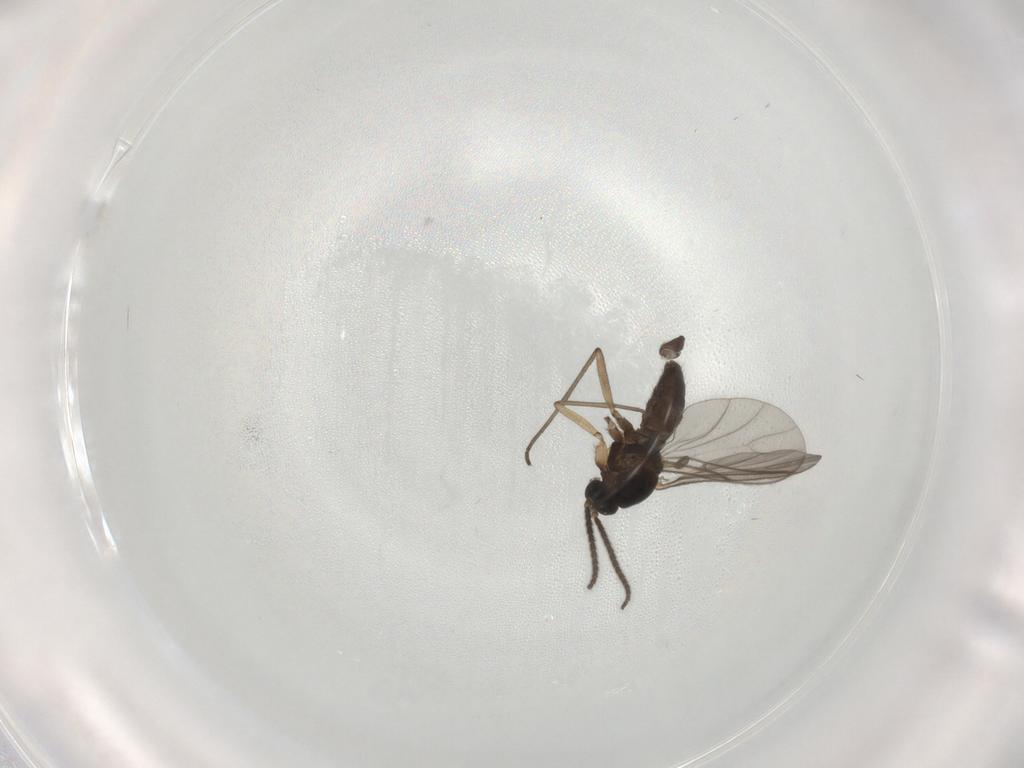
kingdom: Animalia
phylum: Arthropoda
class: Insecta
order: Diptera
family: Sciaridae
